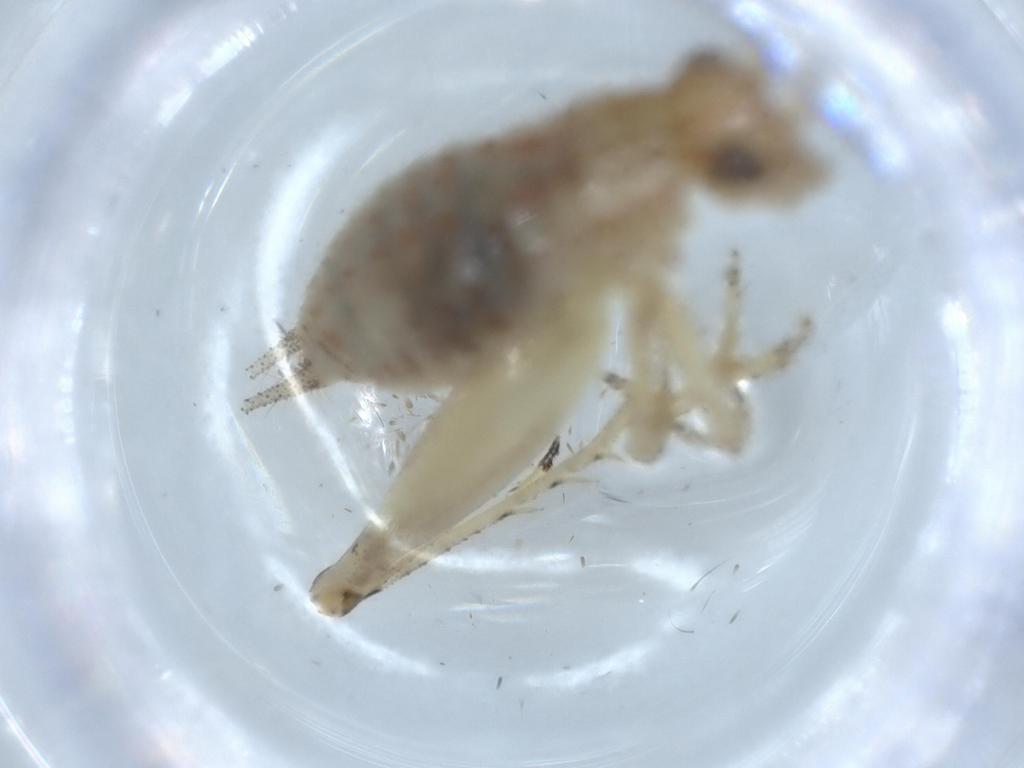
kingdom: Animalia
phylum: Arthropoda
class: Insecta
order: Orthoptera
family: Trigonidiidae
